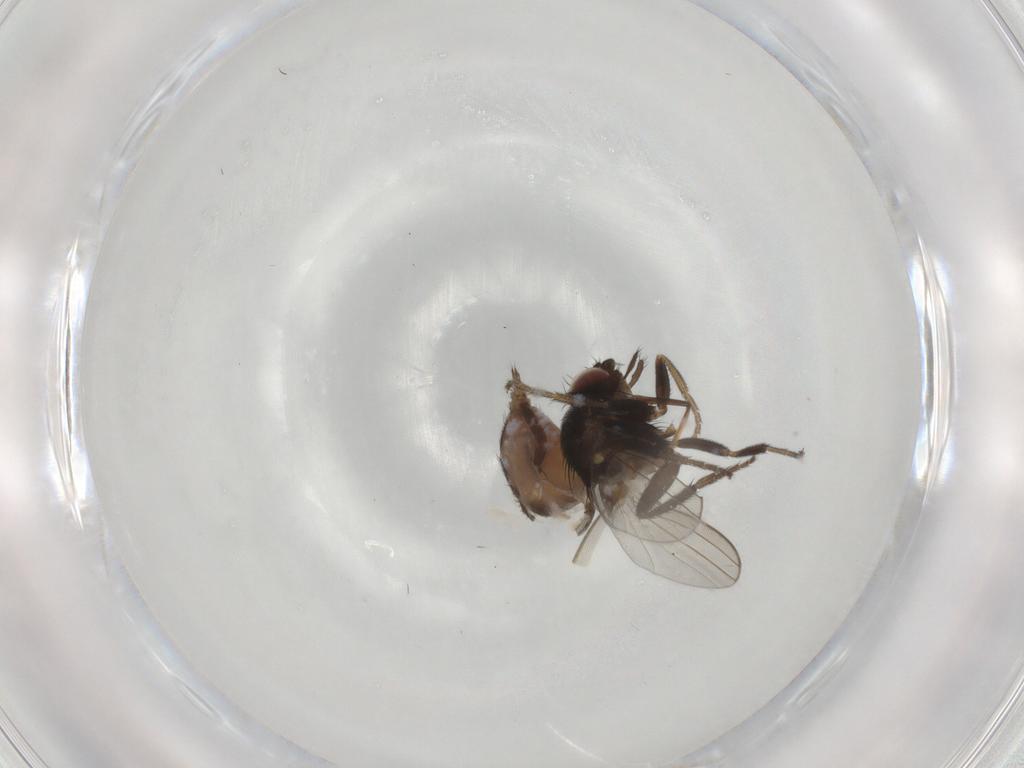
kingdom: Animalia
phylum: Arthropoda
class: Insecta
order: Diptera
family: Milichiidae
